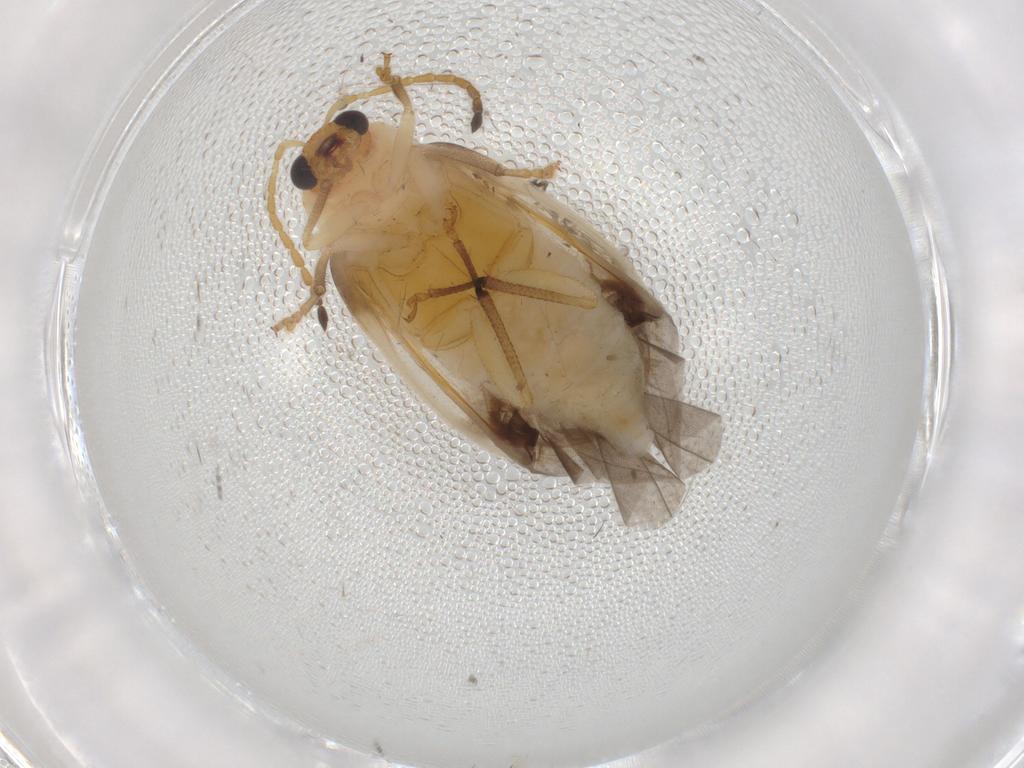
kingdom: Animalia
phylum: Arthropoda
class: Insecta
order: Coleoptera
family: Chrysomelidae
